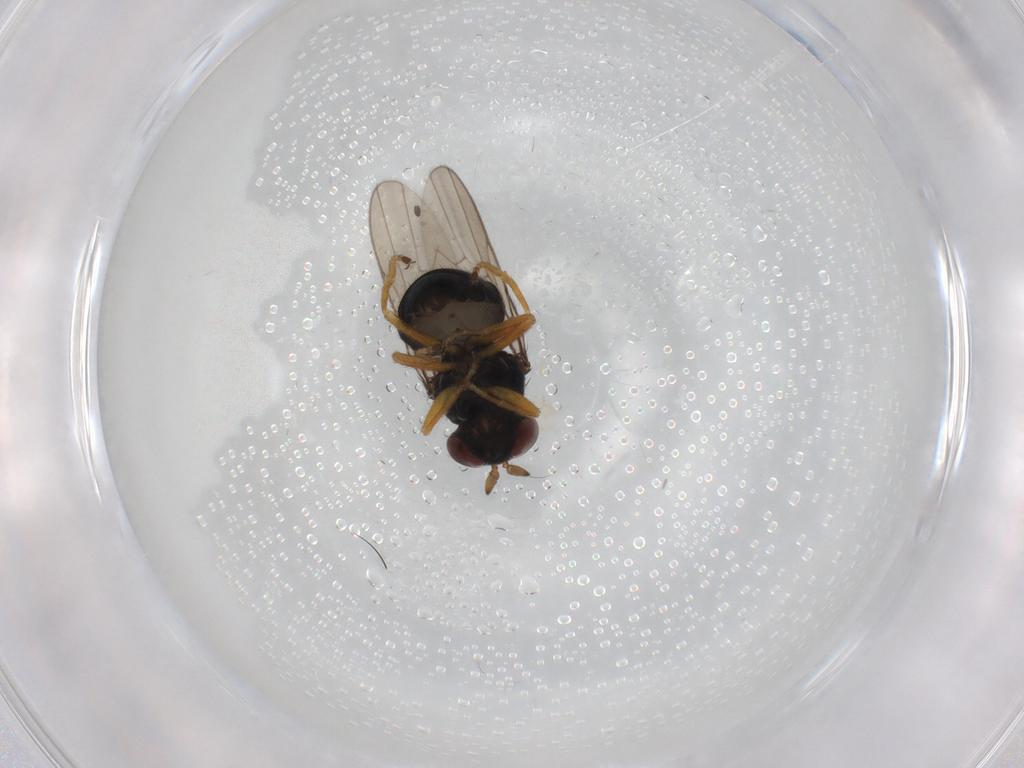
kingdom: Animalia
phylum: Arthropoda
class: Insecta
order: Diptera
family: Ephydridae
